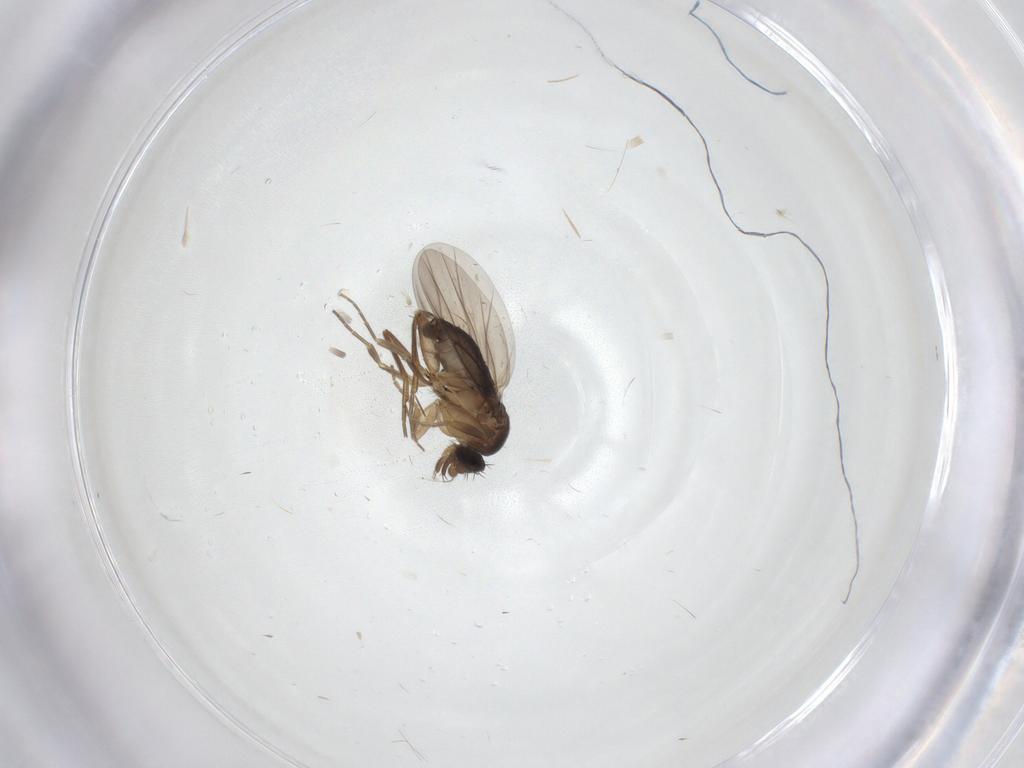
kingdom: Animalia
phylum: Arthropoda
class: Insecta
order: Diptera
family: Phoridae
